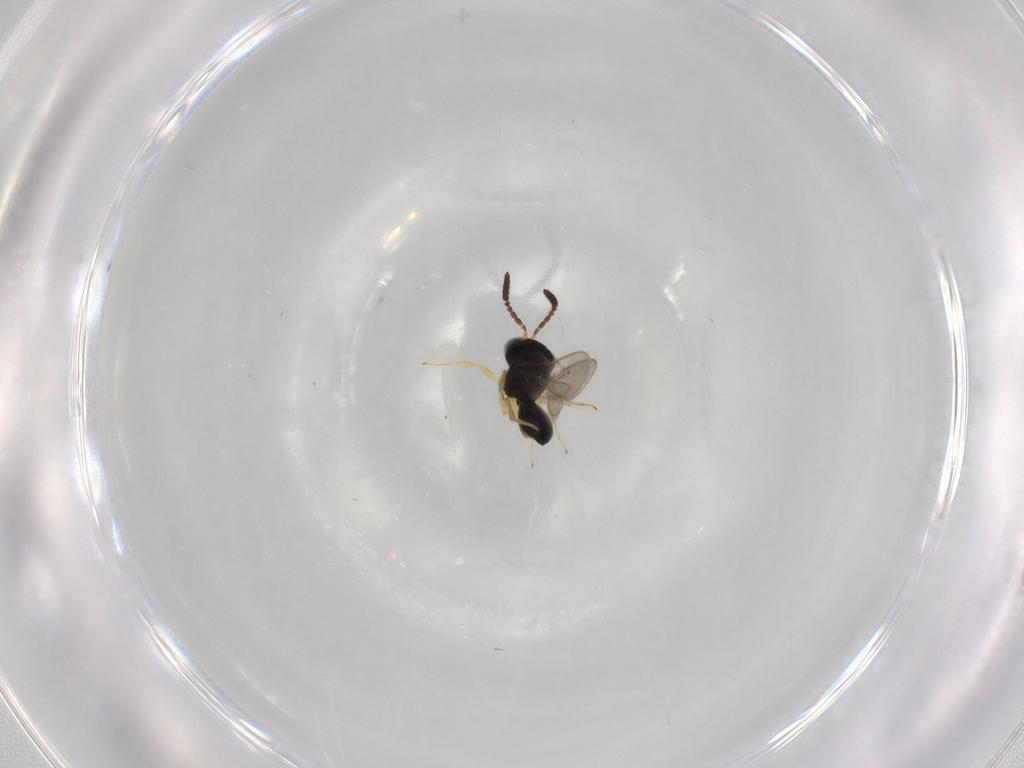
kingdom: Animalia
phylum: Arthropoda
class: Insecta
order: Hymenoptera
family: Scelionidae
